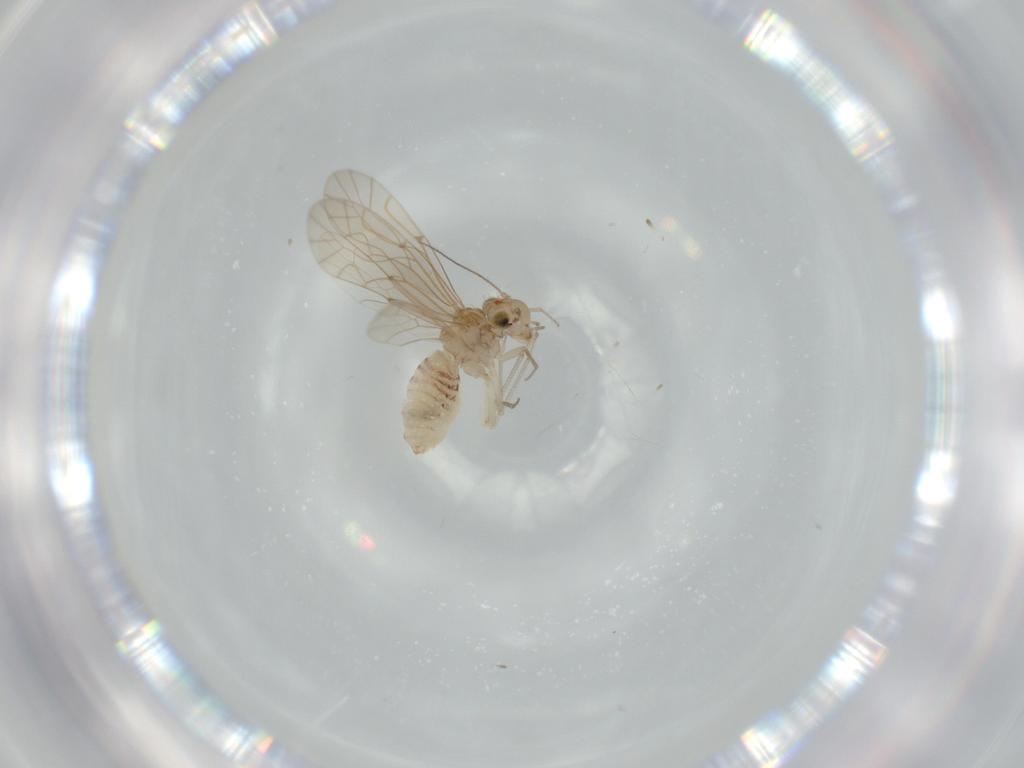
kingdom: Animalia
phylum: Arthropoda
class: Insecta
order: Psocodea
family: Lachesillidae
